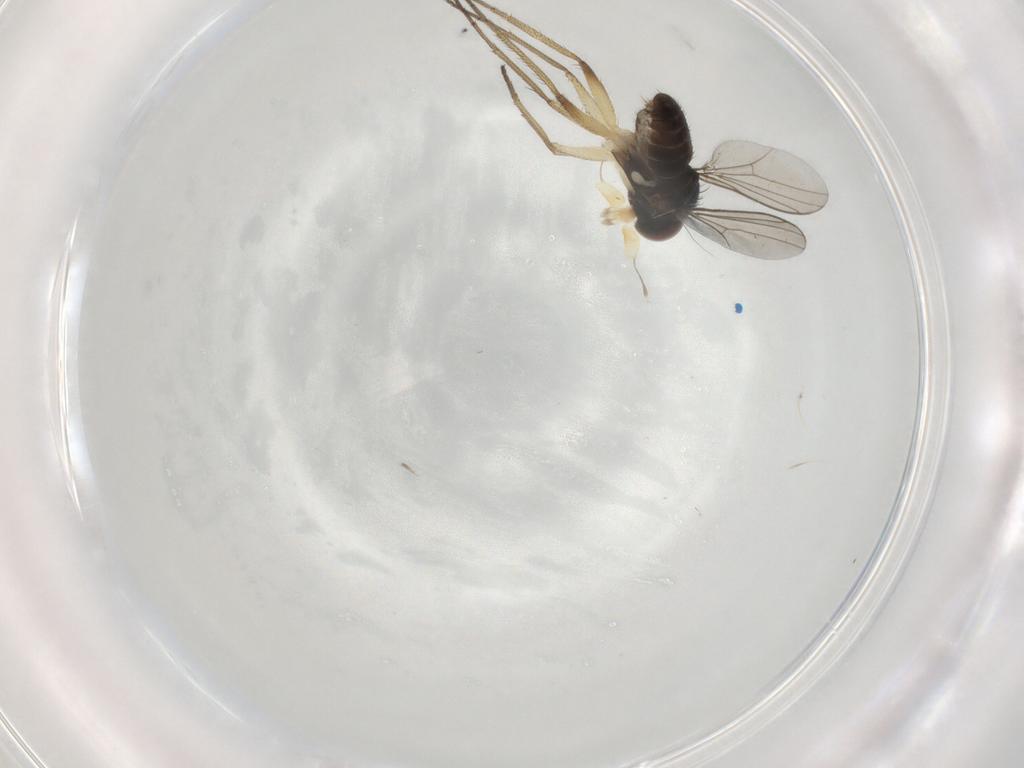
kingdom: Animalia
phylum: Arthropoda
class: Insecta
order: Diptera
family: Dolichopodidae
